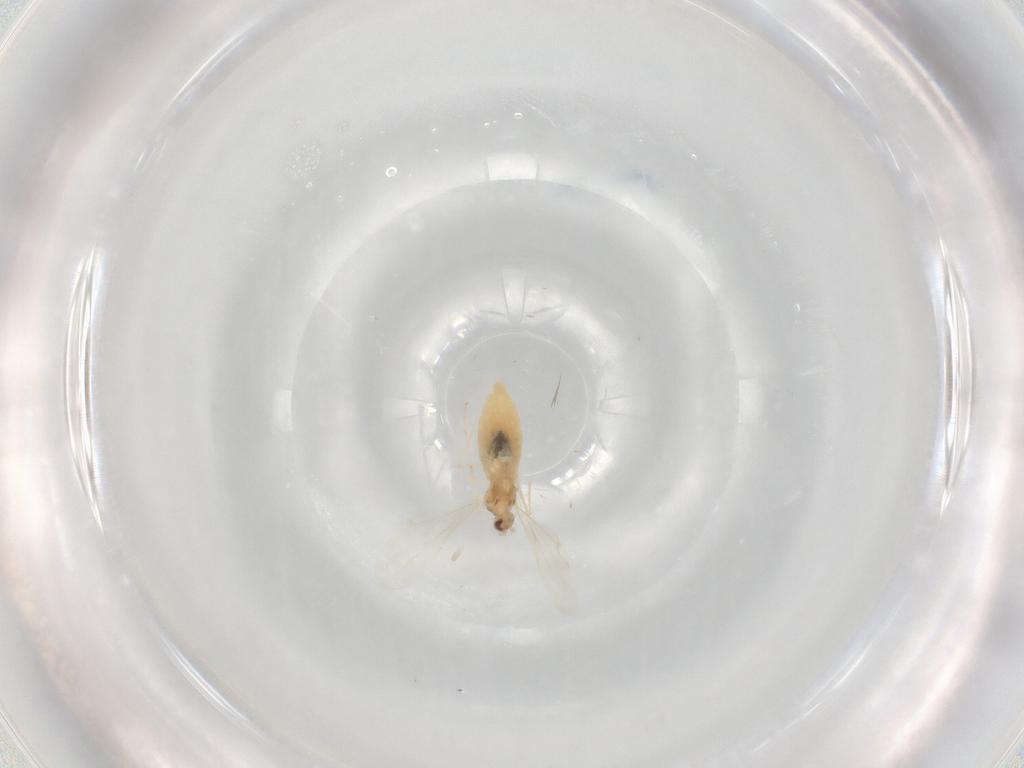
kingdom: Animalia
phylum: Arthropoda
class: Insecta
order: Diptera
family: Cecidomyiidae
